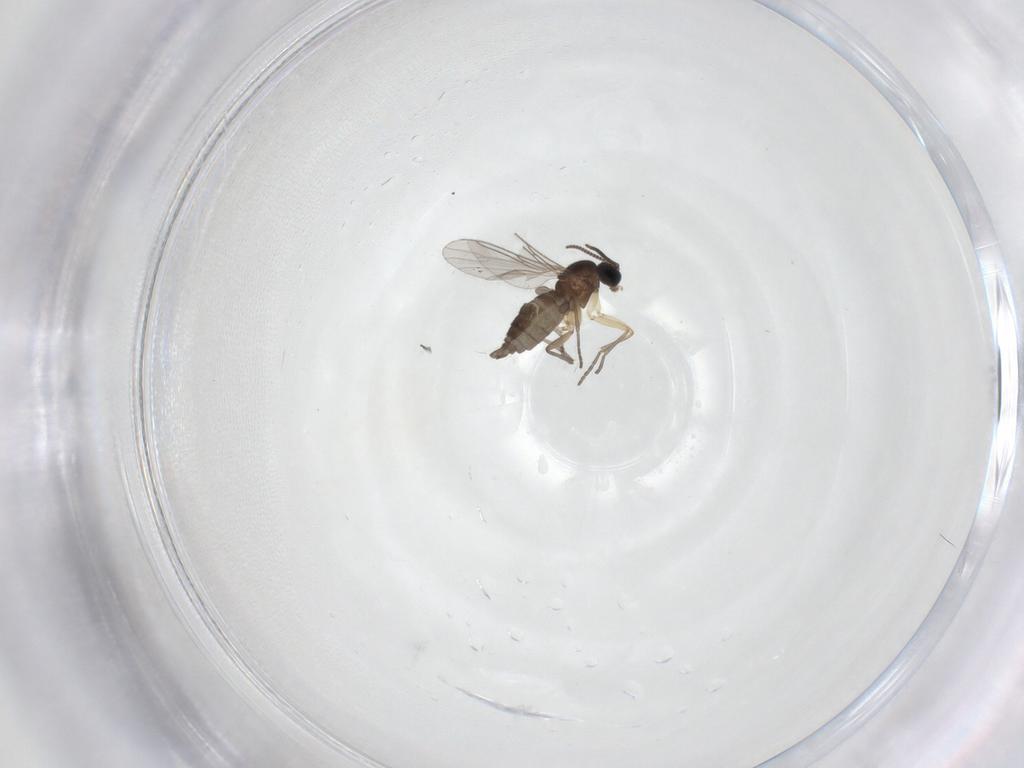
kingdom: Animalia
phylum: Arthropoda
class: Insecta
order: Diptera
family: Sciaridae
